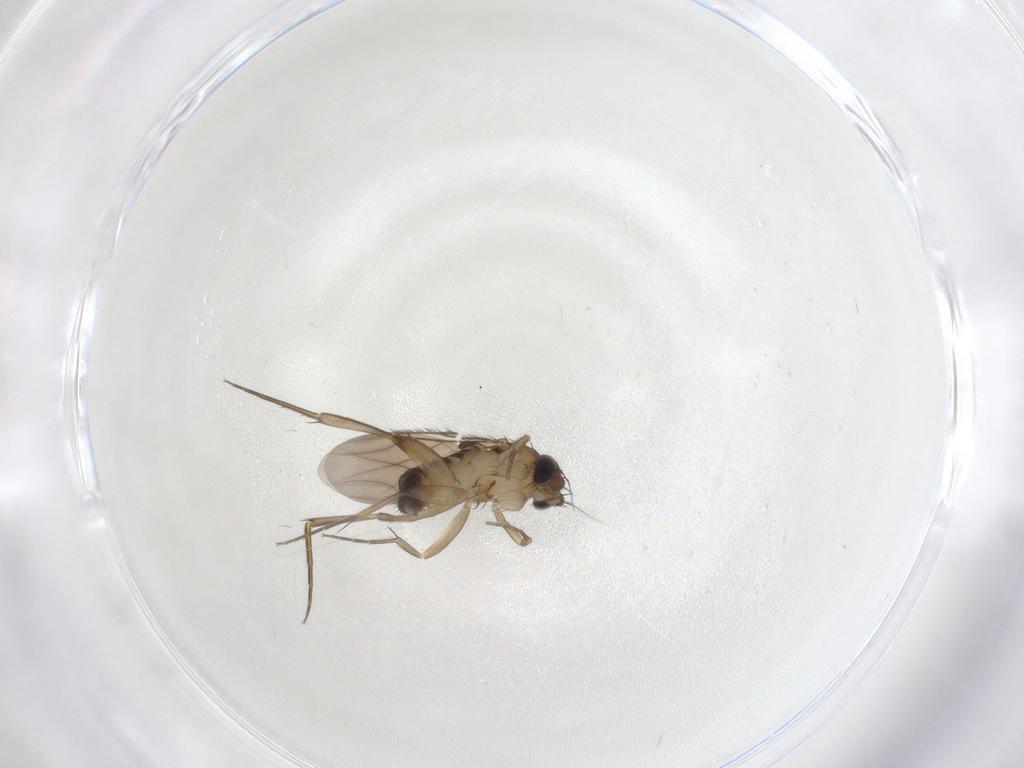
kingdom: Animalia
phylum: Arthropoda
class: Insecta
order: Diptera
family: Phoridae
